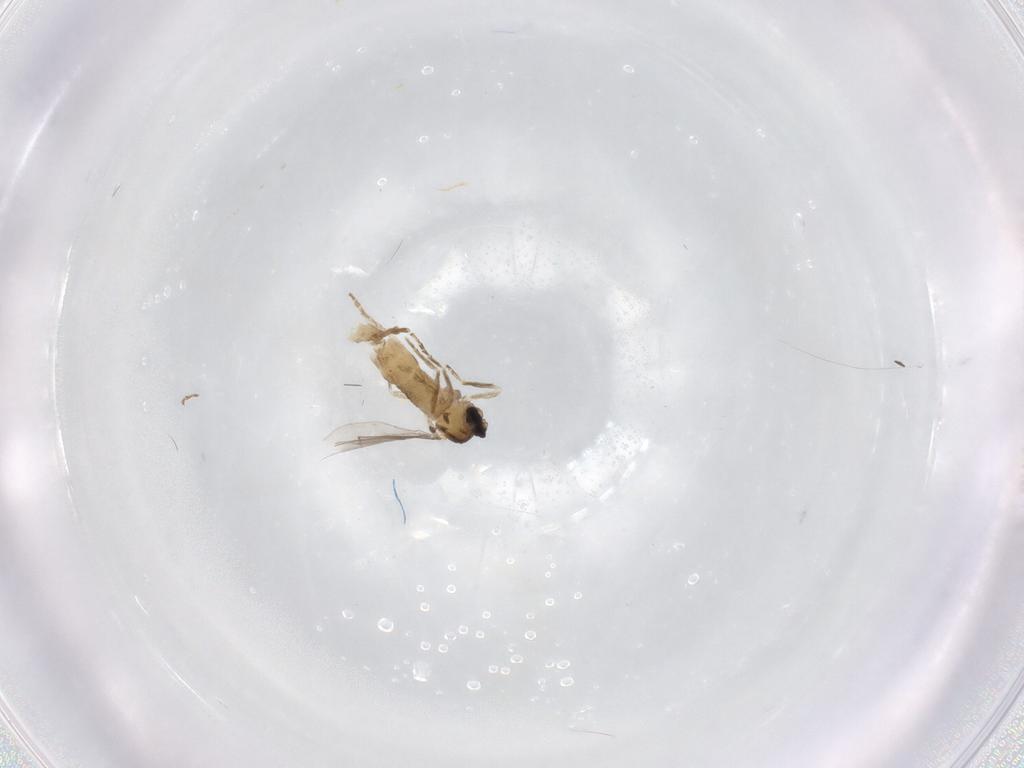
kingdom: Animalia
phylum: Arthropoda
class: Insecta
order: Diptera
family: Cecidomyiidae
